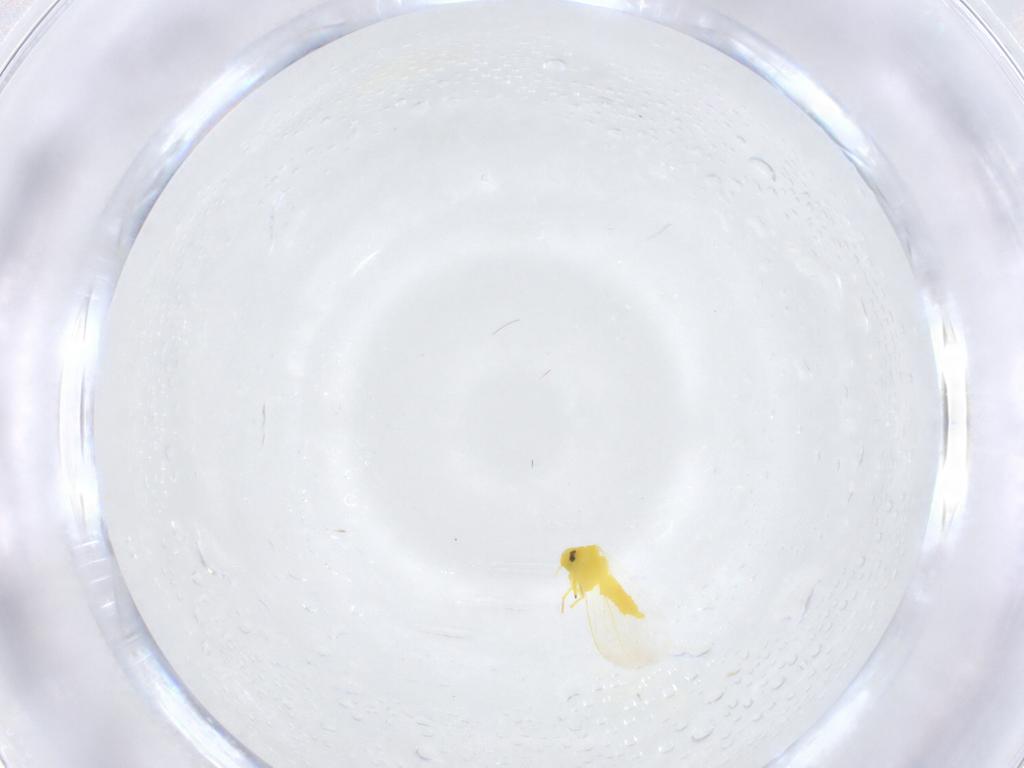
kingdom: Animalia
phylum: Arthropoda
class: Insecta
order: Hemiptera
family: Aleyrodidae
